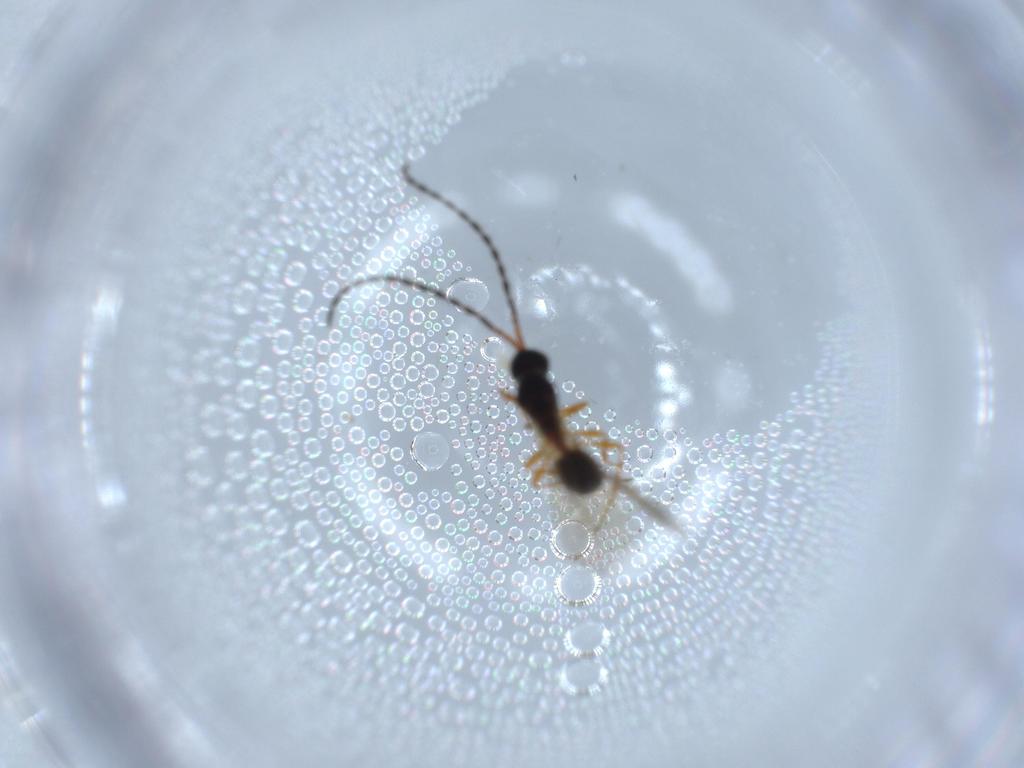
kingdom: Animalia
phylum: Arthropoda
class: Insecta
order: Hymenoptera
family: Diapriidae
